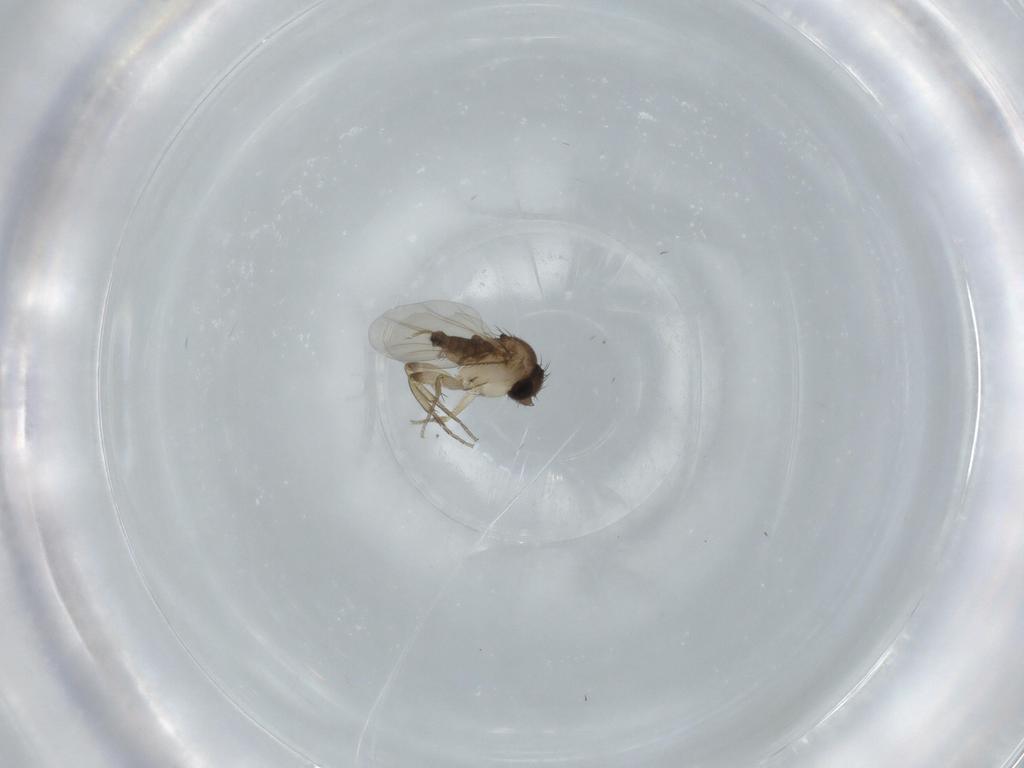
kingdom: Animalia
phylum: Arthropoda
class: Insecta
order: Diptera
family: Phoridae
